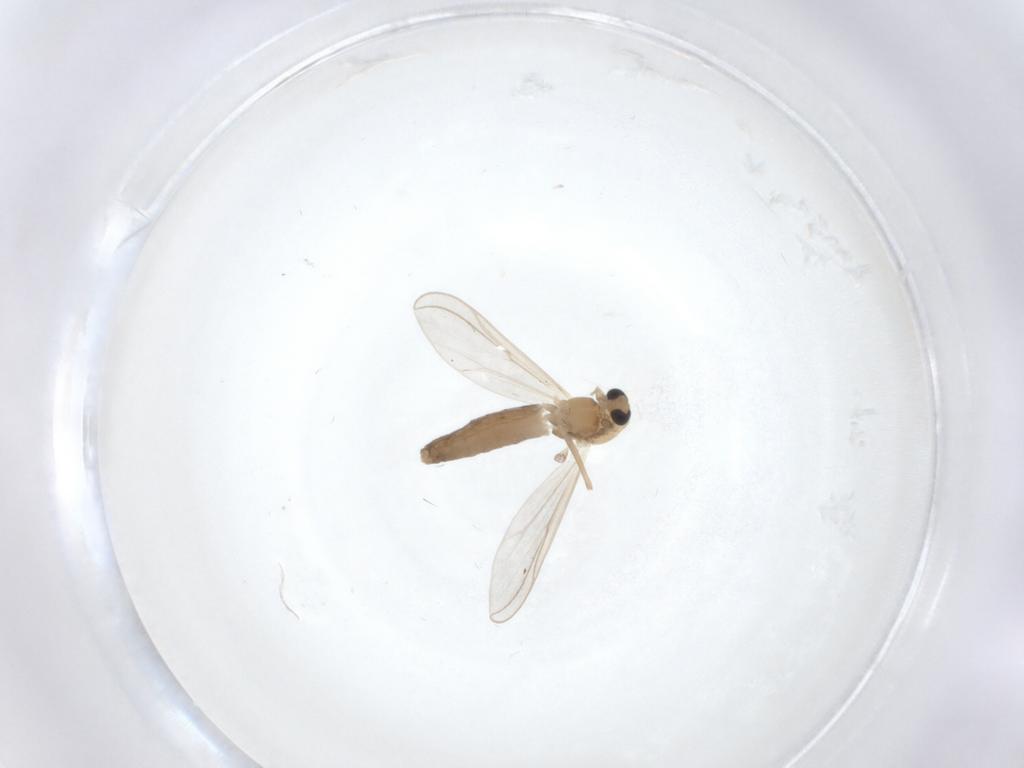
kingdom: Animalia
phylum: Arthropoda
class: Insecta
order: Diptera
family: Chironomidae
